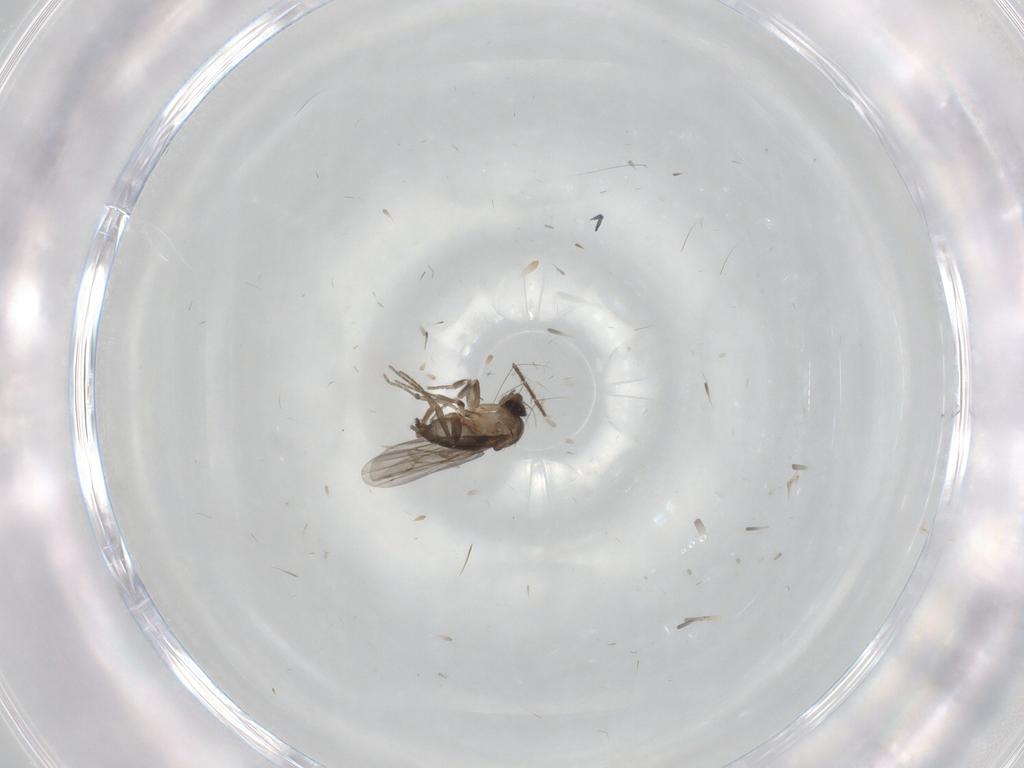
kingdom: Animalia
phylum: Arthropoda
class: Insecta
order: Diptera
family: Culicidae
